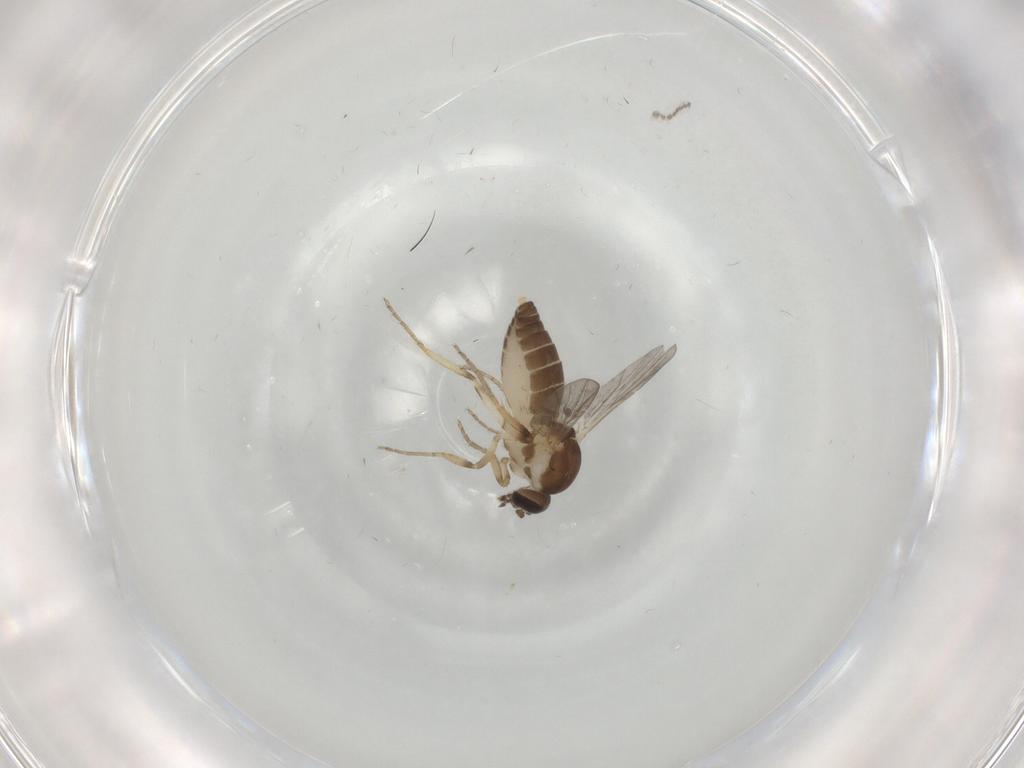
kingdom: Animalia
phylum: Arthropoda
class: Insecta
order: Diptera
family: Ceratopogonidae
